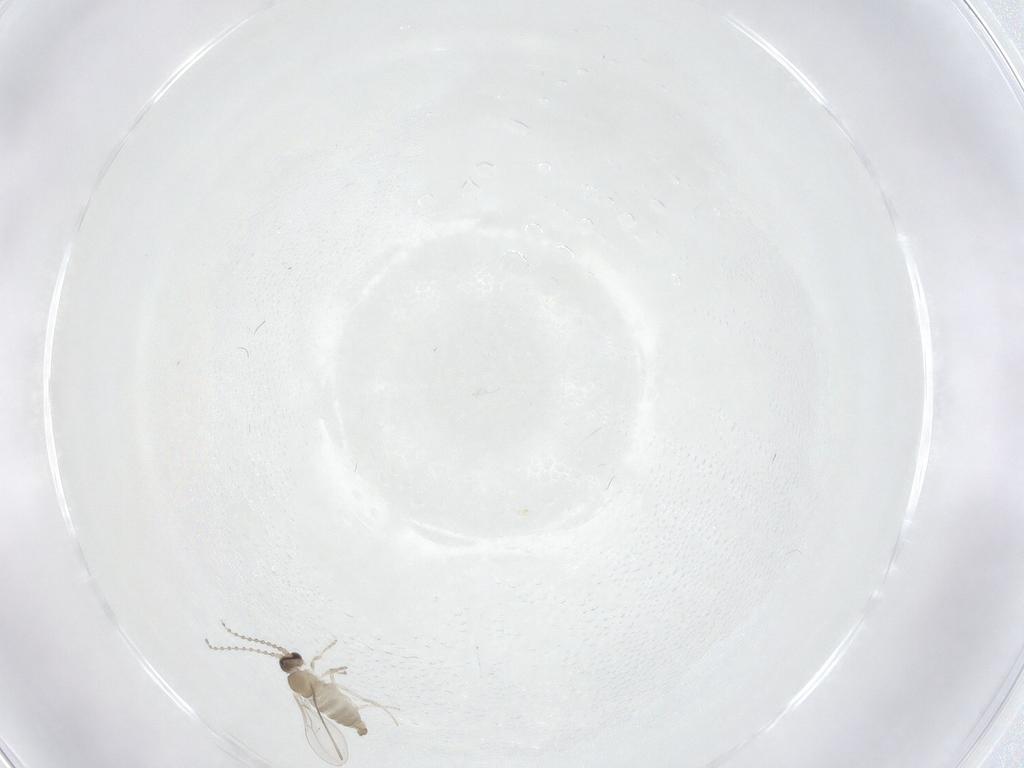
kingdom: Animalia
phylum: Arthropoda
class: Insecta
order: Diptera
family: Cecidomyiidae
